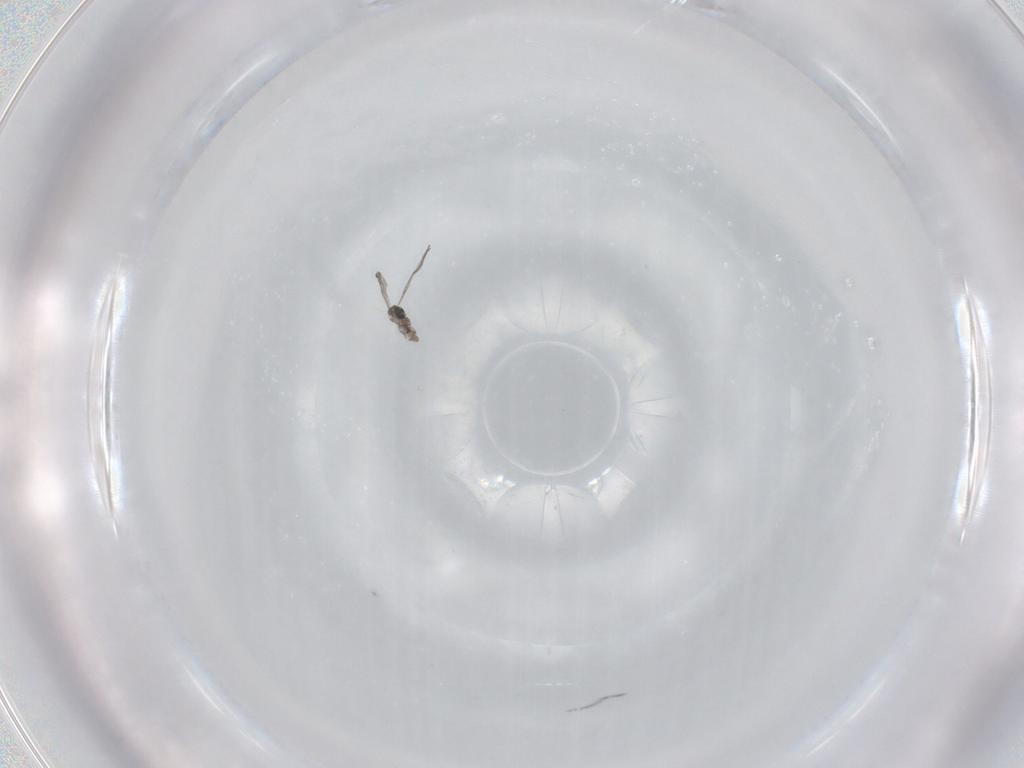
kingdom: Animalia
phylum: Arthropoda
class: Insecta
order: Diptera
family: Cecidomyiidae
